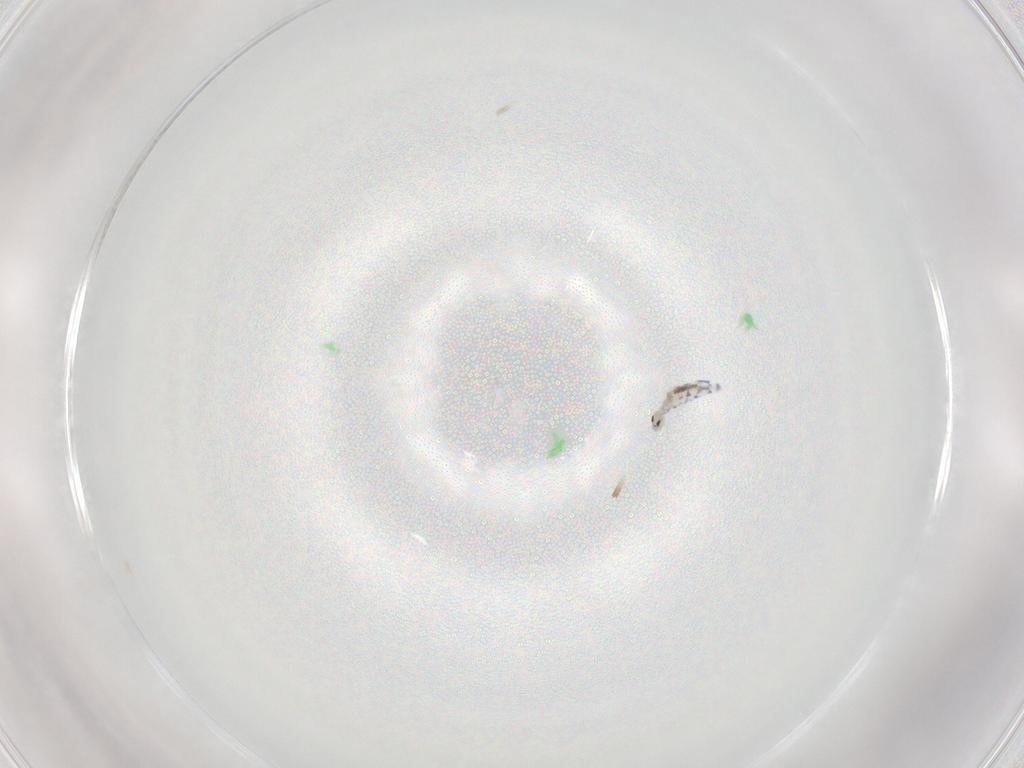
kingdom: Animalia
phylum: Arthropoda
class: Collembola
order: Entomobryomorpha
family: Entomobryidae
